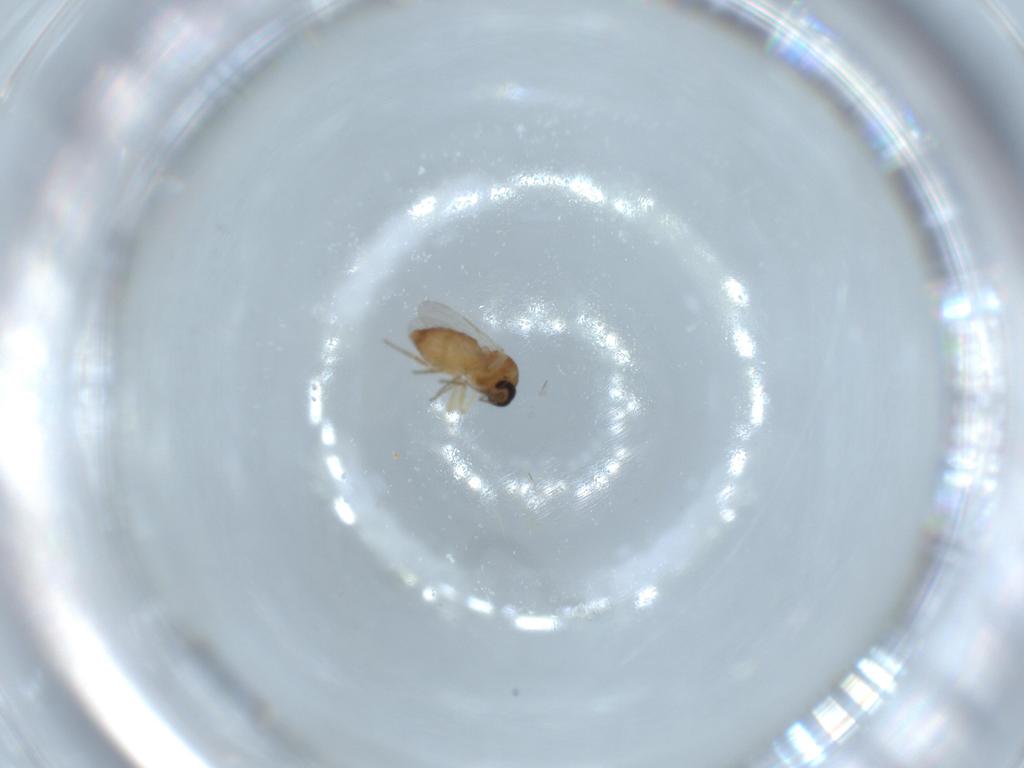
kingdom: Animalia
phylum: Arthropoda
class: Insecta
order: Diptera
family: Ceratopogonidae
